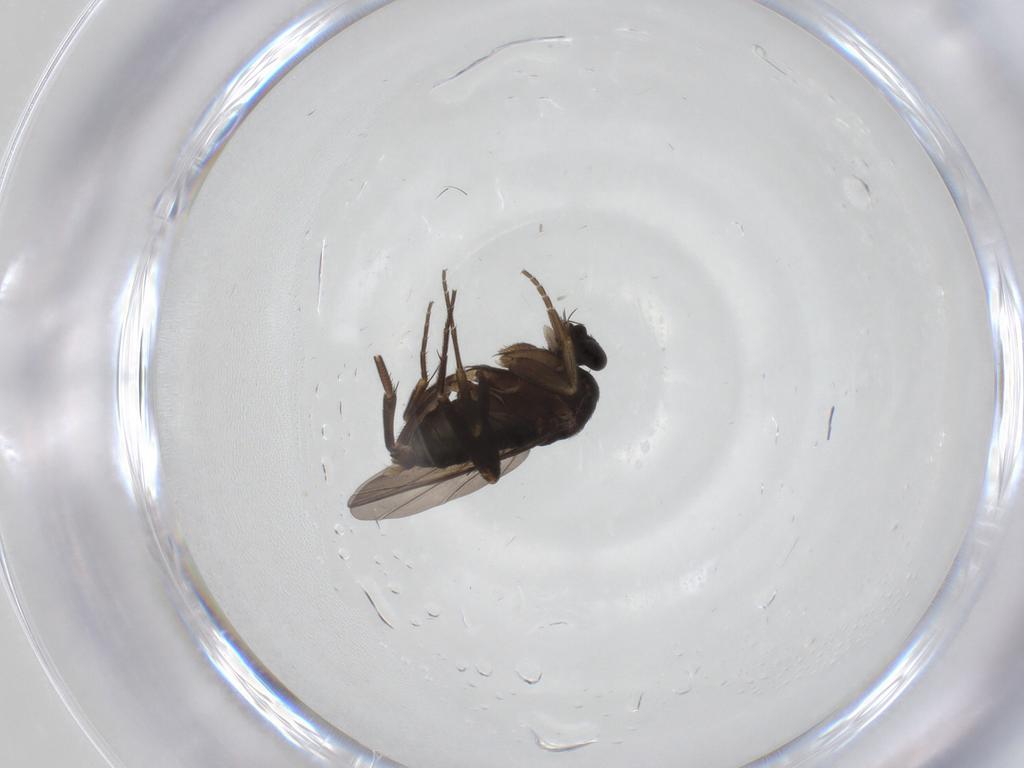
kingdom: Animalia
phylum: Arthropoda
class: Insecta
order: Diptera
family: Phoridae
